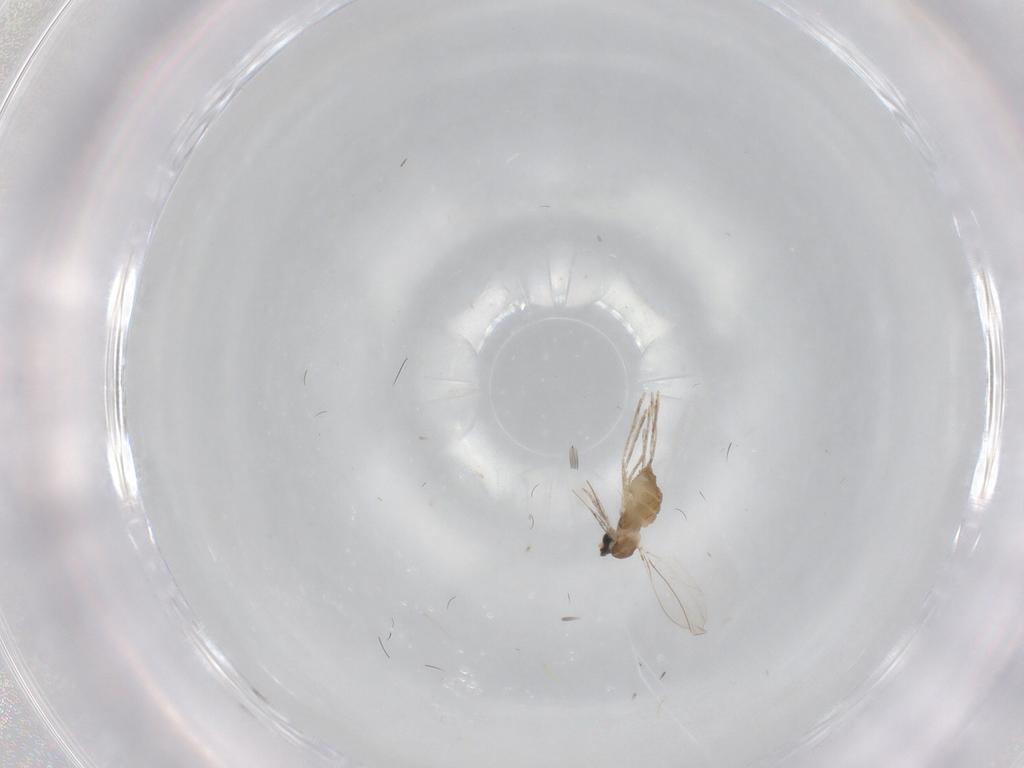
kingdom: Animalia
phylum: Arthropoda
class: Insecta
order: Diptera
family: Cecidomyiidae
